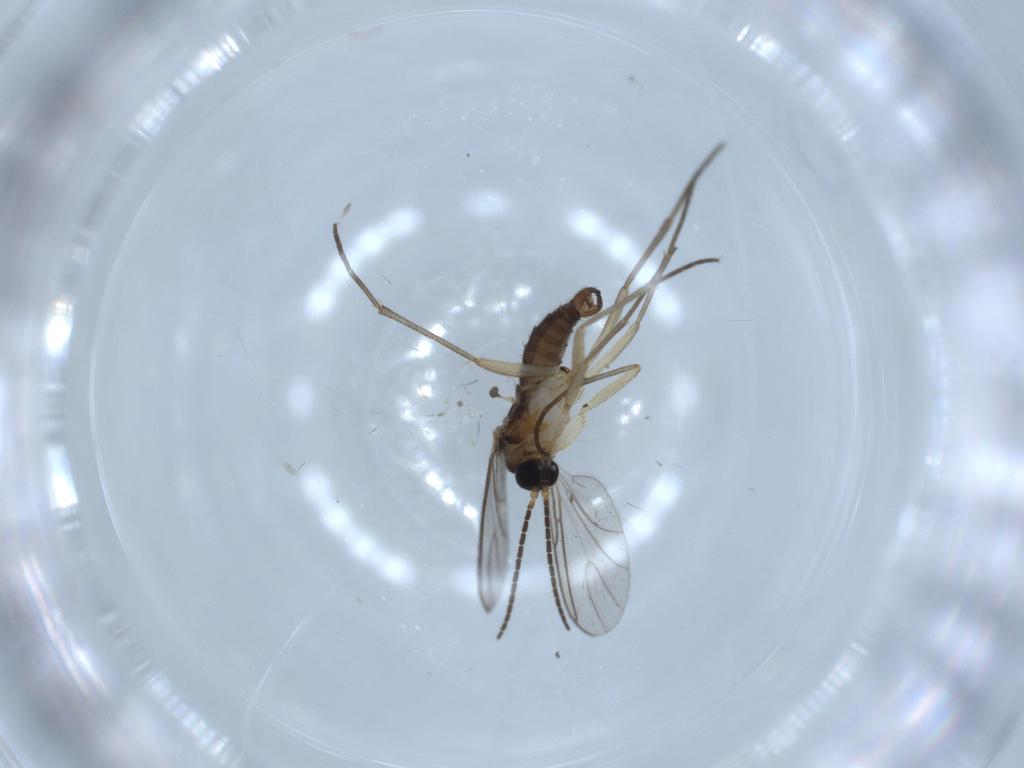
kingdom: Animalia
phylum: Arthropoda
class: Insecta
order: Diptera
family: Sciaridae
